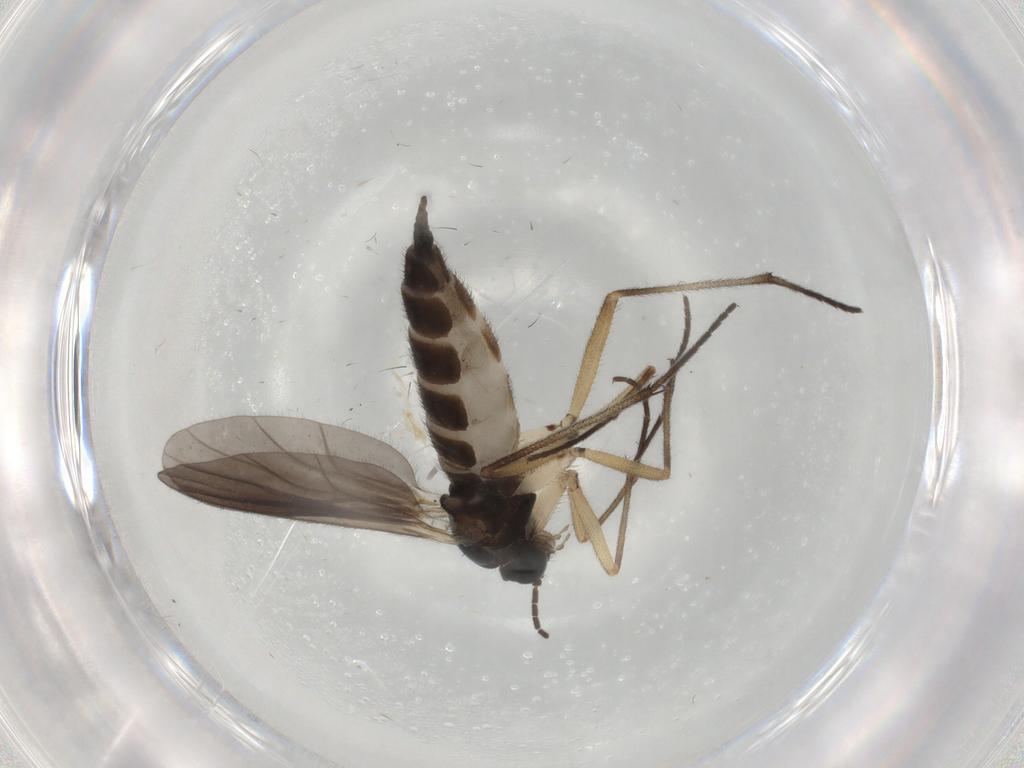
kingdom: Animalia
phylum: Arthropoda
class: Insecta
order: Diptera
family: Sciaridae
